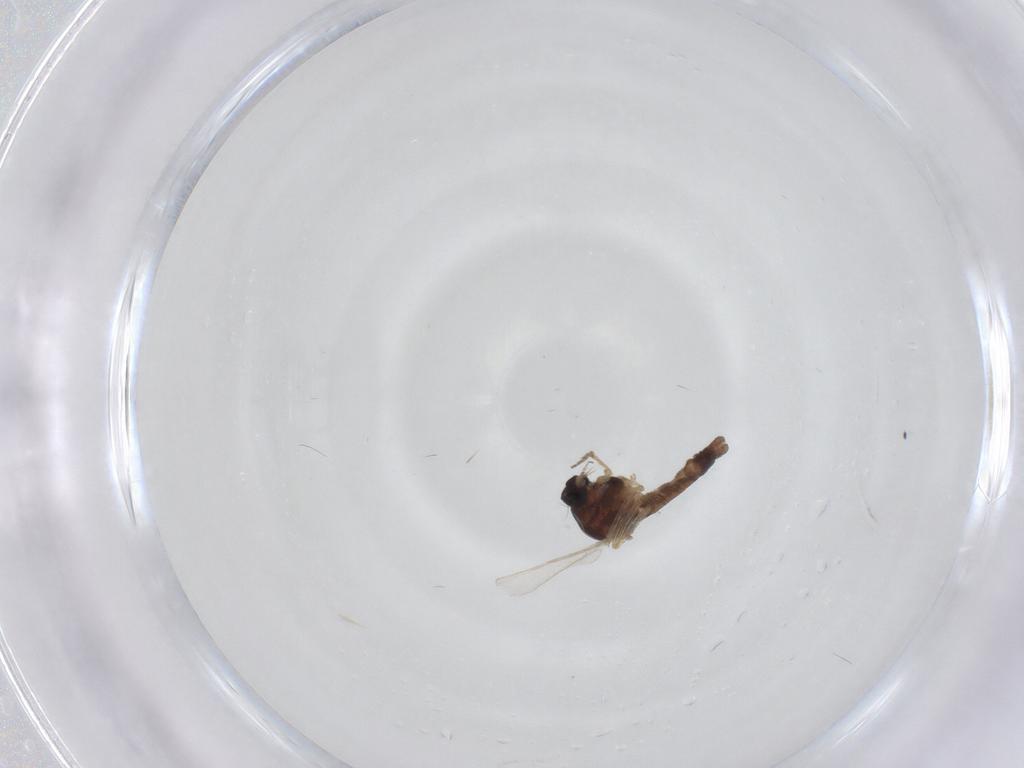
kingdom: Animalia
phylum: Arthropoda
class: Insecta
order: Diptera
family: Ceratopogonidae
